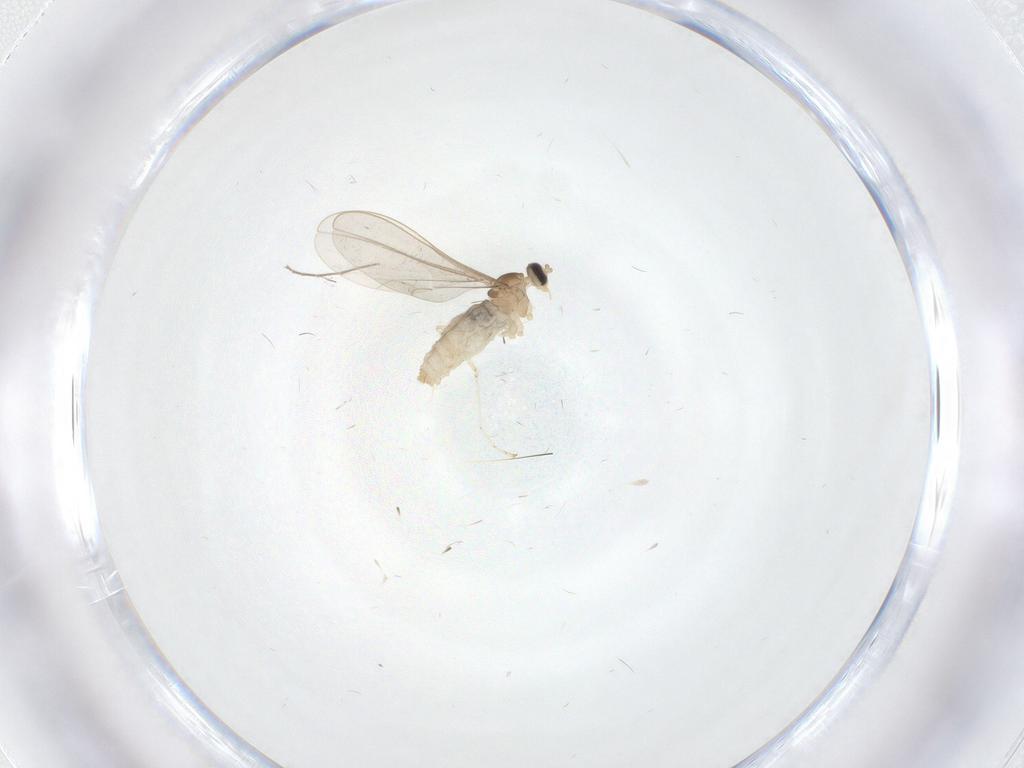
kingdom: Animalia
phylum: Arthropoda
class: Insecta
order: Diptera
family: Cecidomyiidae
